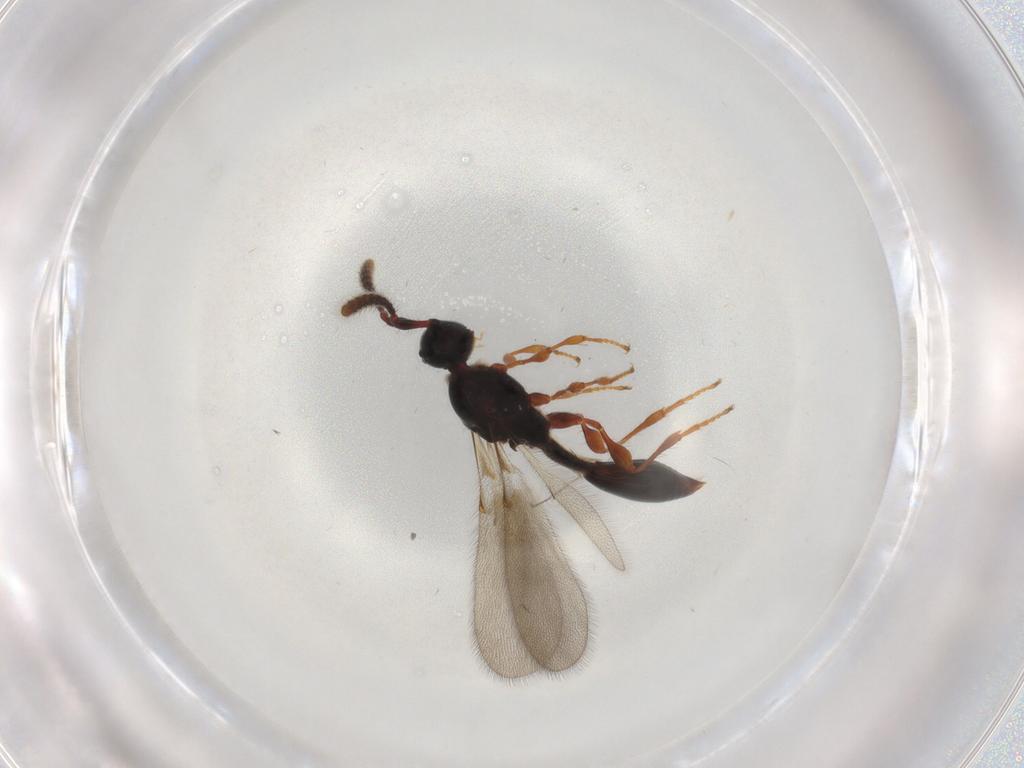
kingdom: Animalia
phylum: Arthropoda
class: Insecta
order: Hymenoptera
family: Diapriidae
